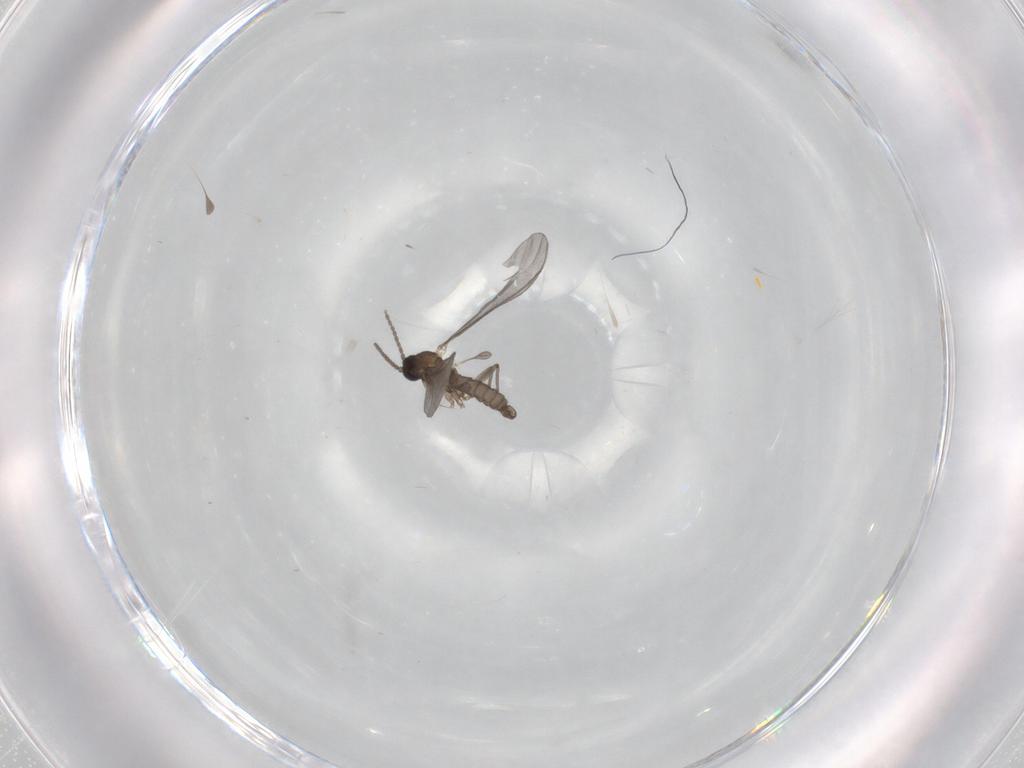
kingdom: Animalia
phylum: Arthropoda
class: Insecta
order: Diptera
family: Sciaridae
